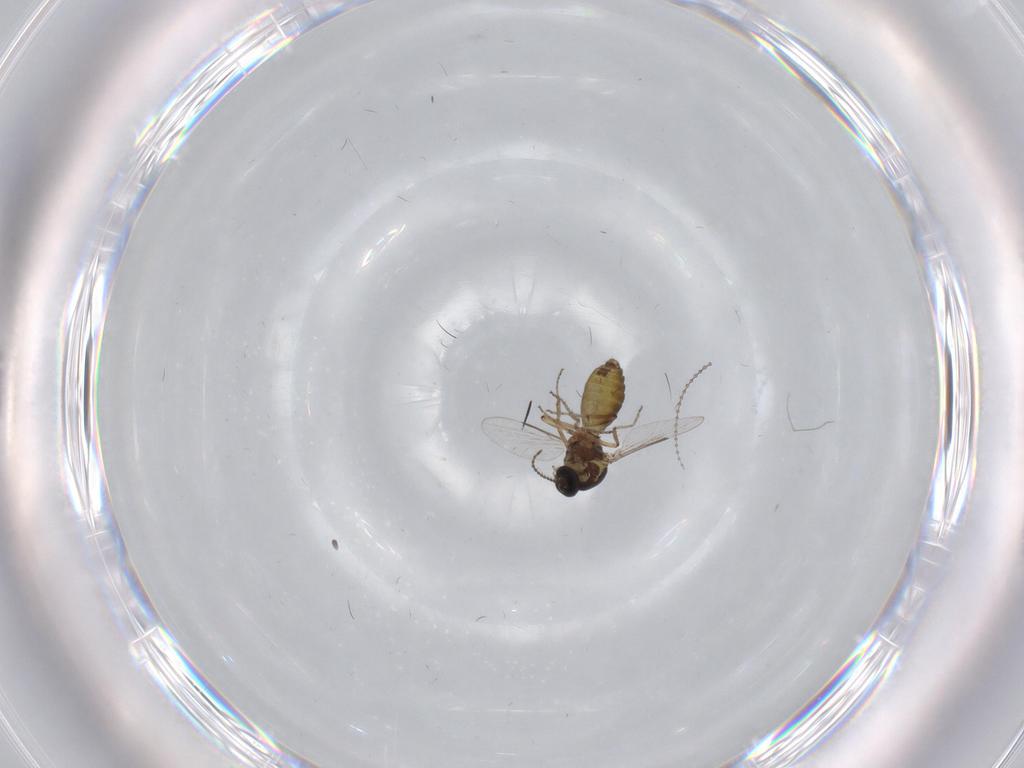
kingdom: Animalia
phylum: Arthropoda
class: Insecta
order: Diptera
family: Ceratopogonidae
